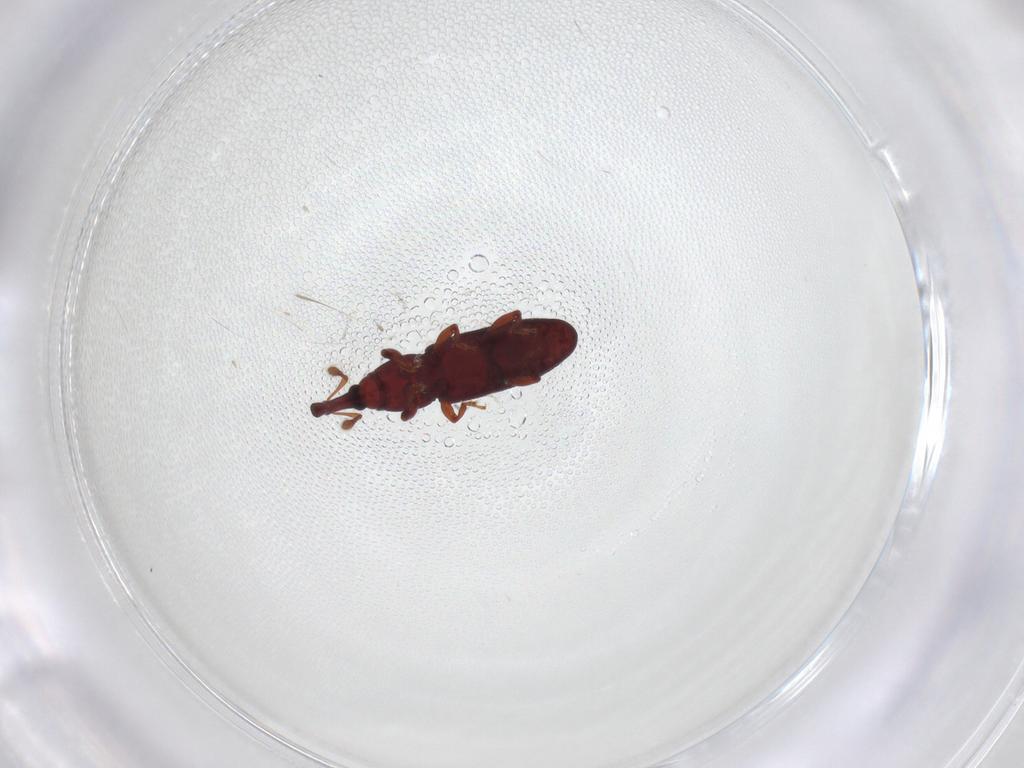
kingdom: Animalia
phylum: Arthropoda
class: Insecta
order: Coleoptera
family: Curculionidae
